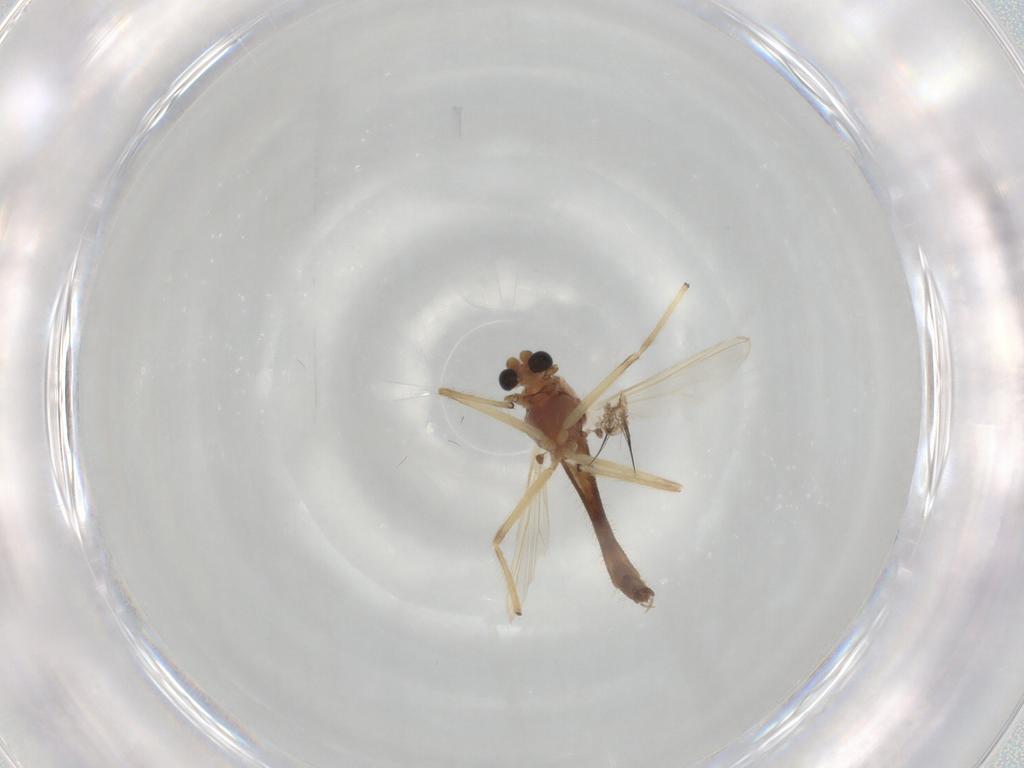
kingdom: Animalia
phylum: Arthropoda
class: Insecta
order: Diptera
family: Chironomidae
